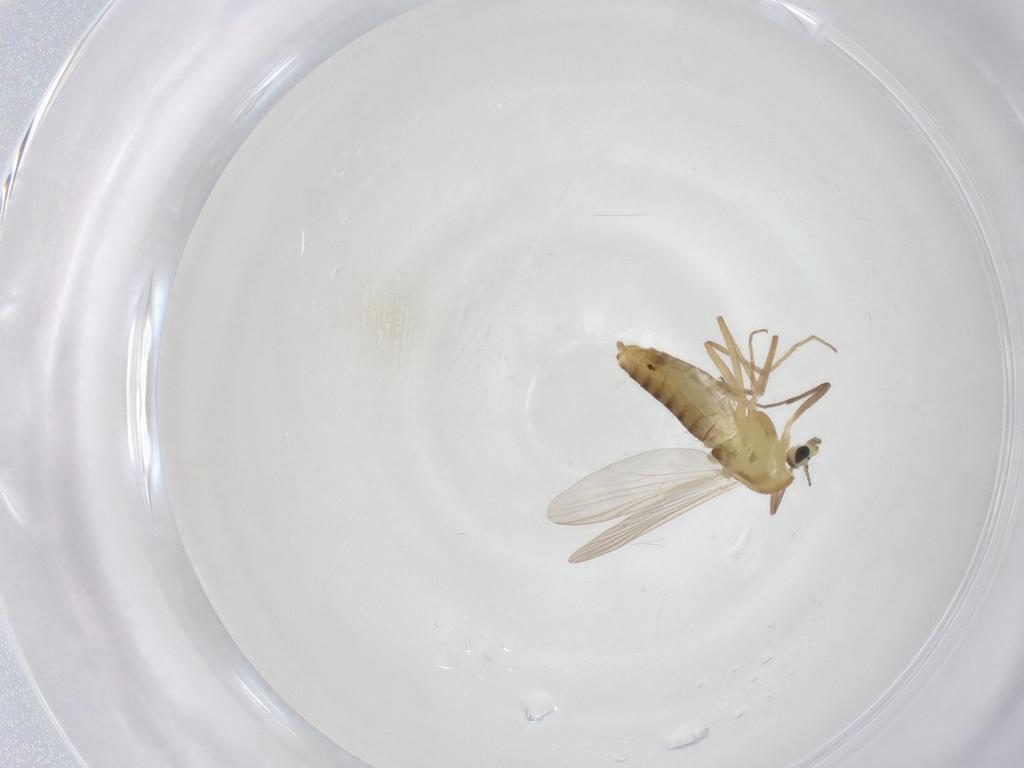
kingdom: Animalia
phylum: Arthropoda
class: Insecta
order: Diptera
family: Chironomidae
